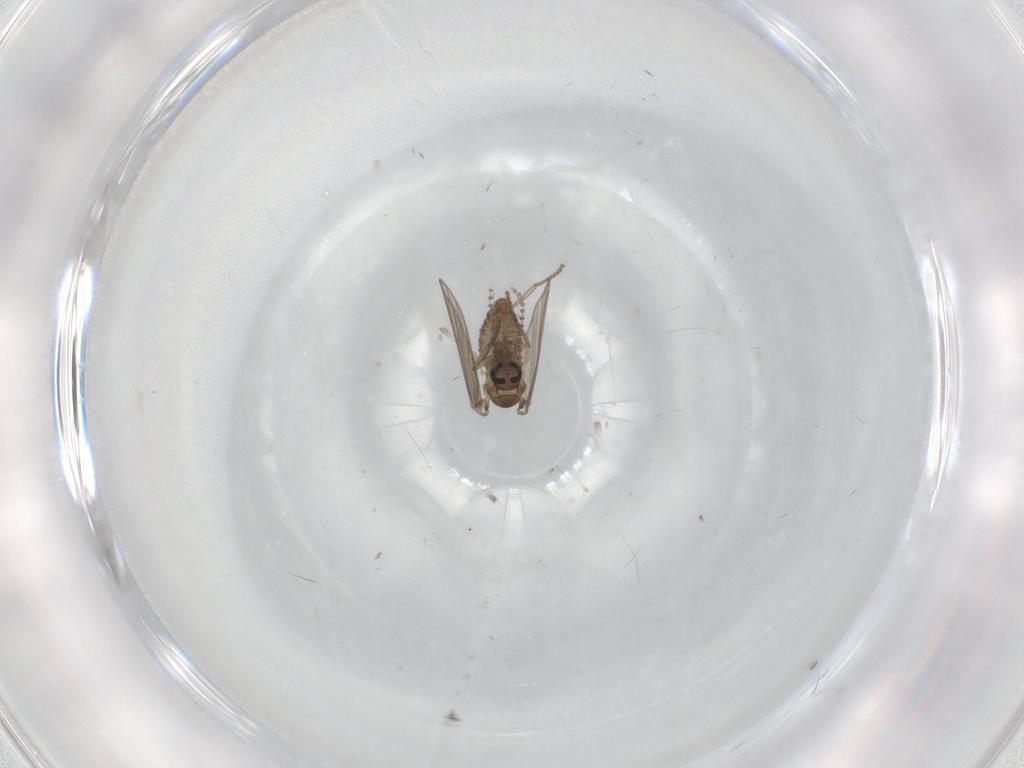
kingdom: Animalia
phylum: Arthropoda
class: Insecta
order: Diptera
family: Psychodidae
